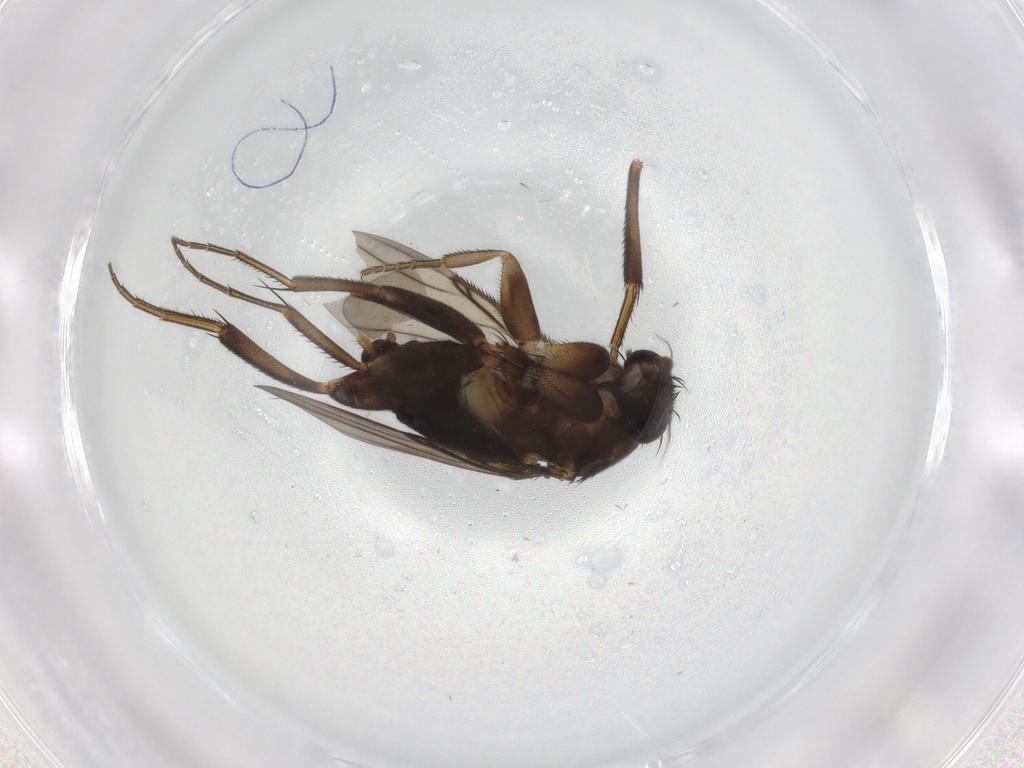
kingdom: Animalia
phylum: Arthropoda
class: Insecta
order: Diptera
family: Phoridae
